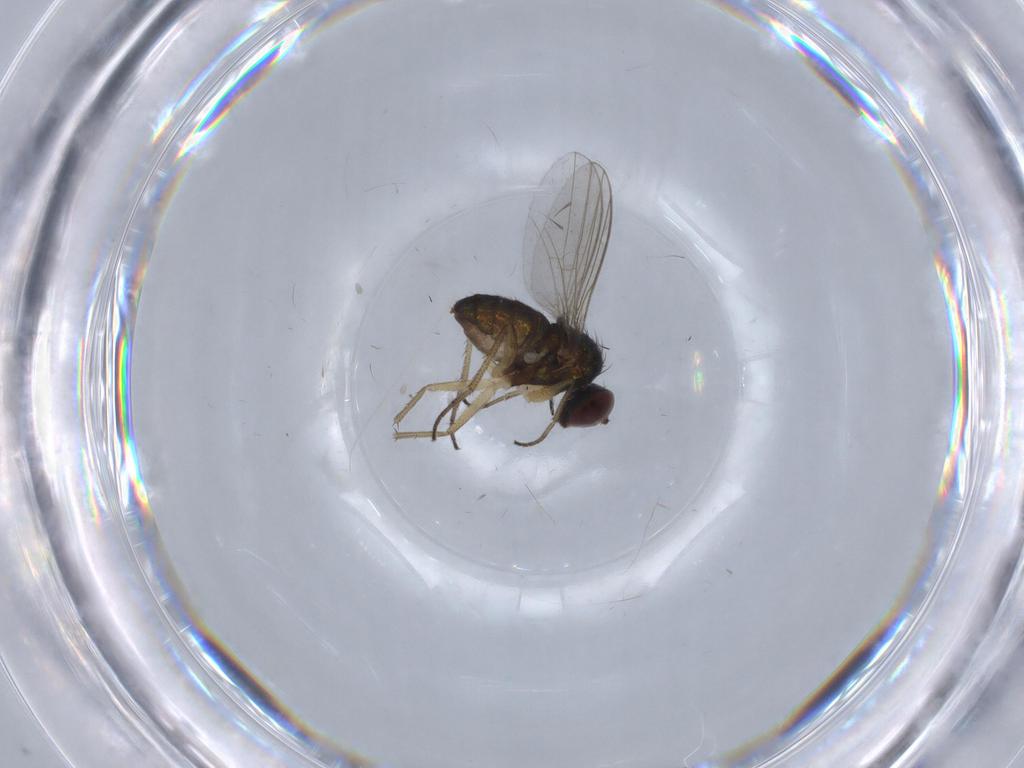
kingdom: Animalia
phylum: Arthropoda
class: Insecta
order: Diptera
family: Dolichopodidae
